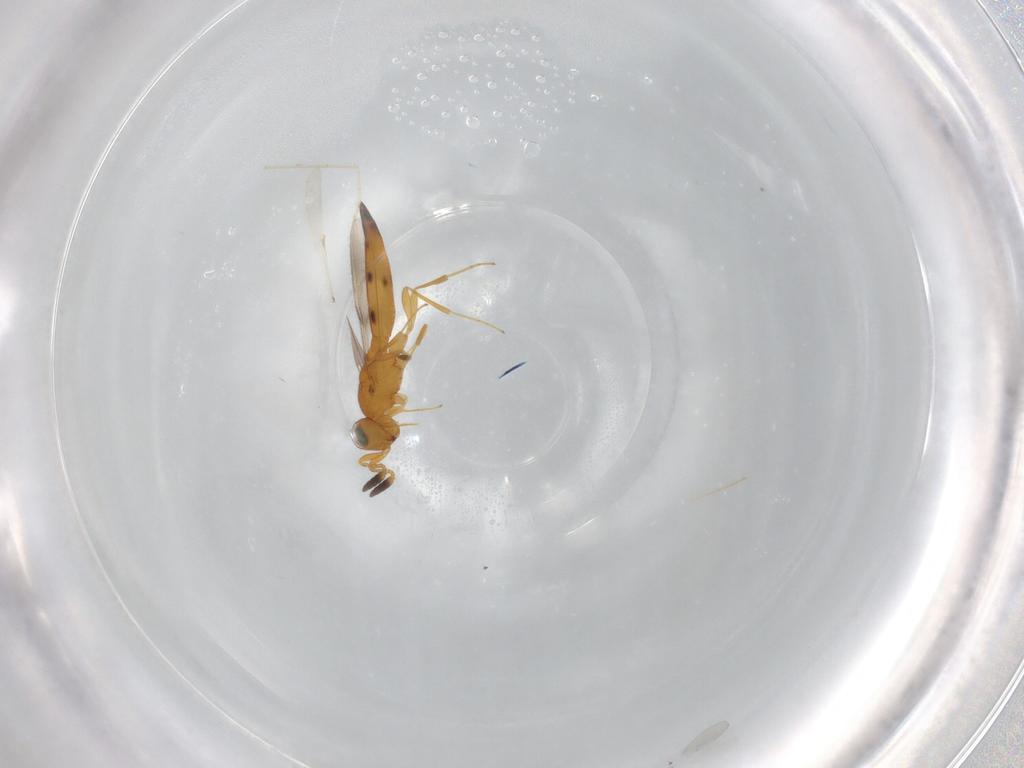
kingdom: Animalia
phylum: Arthropoda
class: Insecta
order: Hymenoptera
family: Scelionidae
